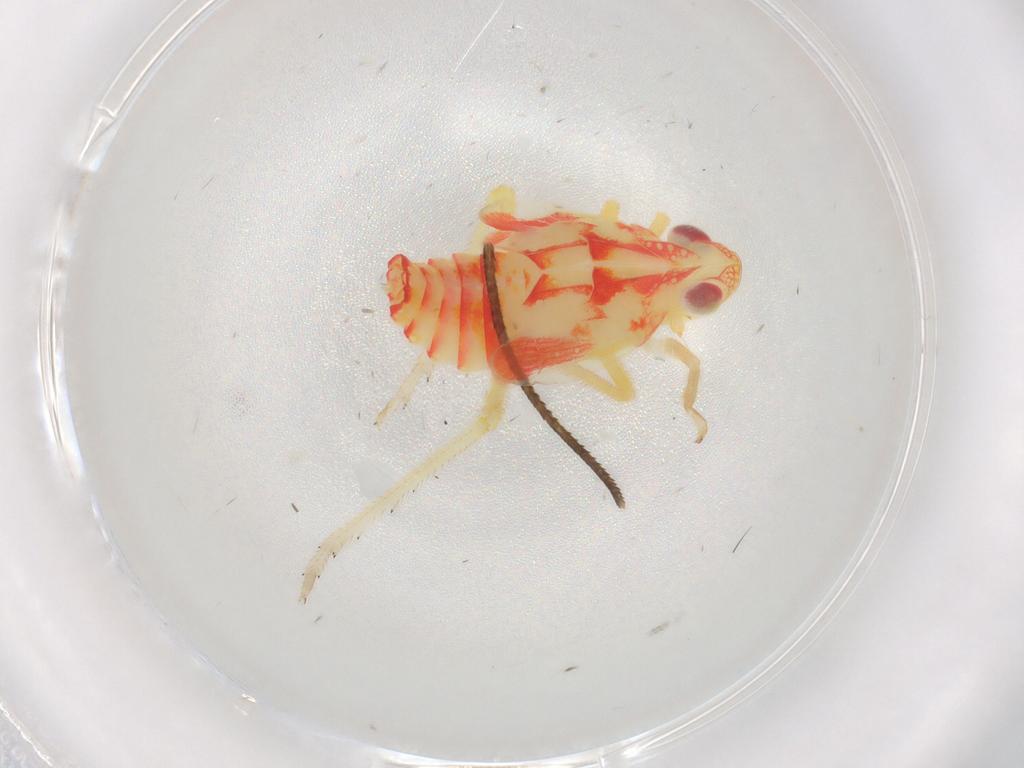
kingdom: Animalia
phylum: Arthropoda
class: Insecta
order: Hemiptera
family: Tropiduchidae
